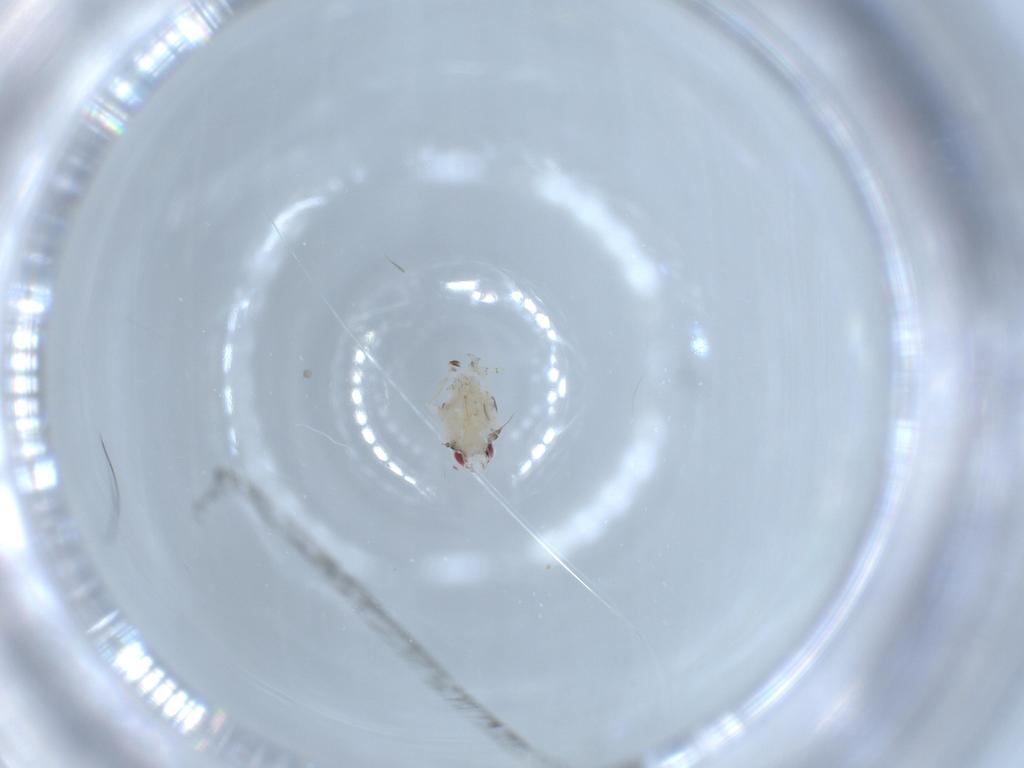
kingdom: Animalia
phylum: Arthropoda
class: Insecta
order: Hemiptera
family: Nogodinidae
